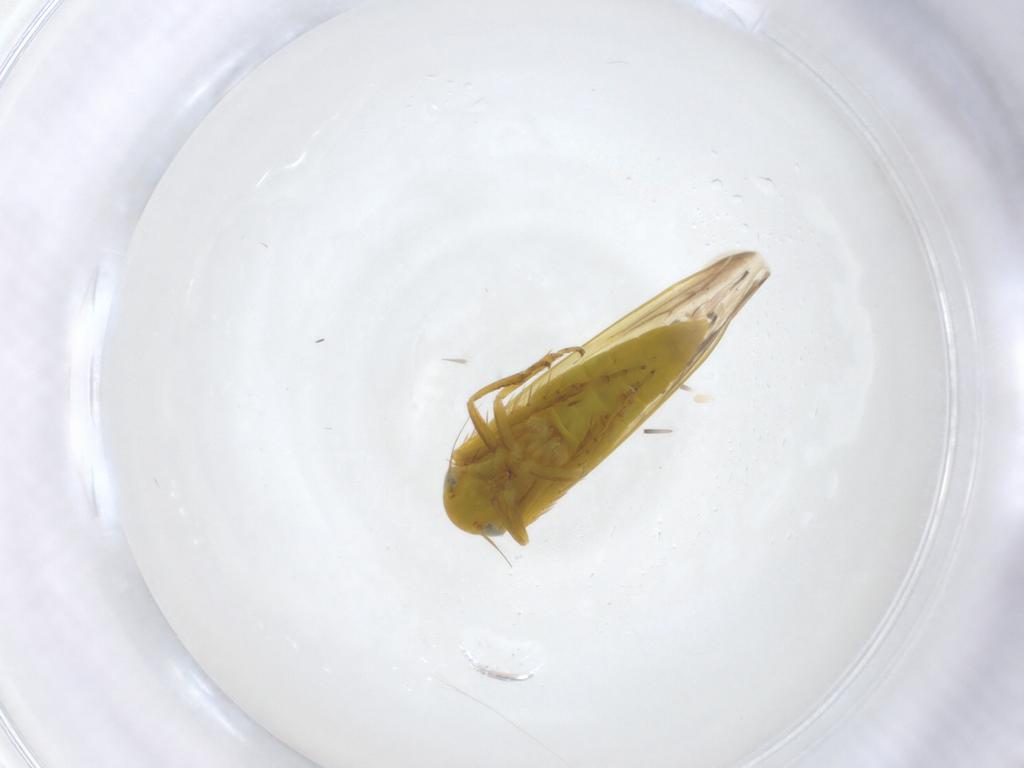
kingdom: Animalia
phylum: Arthropoda
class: Insecta
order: Hemiptera
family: Cicadellidae
